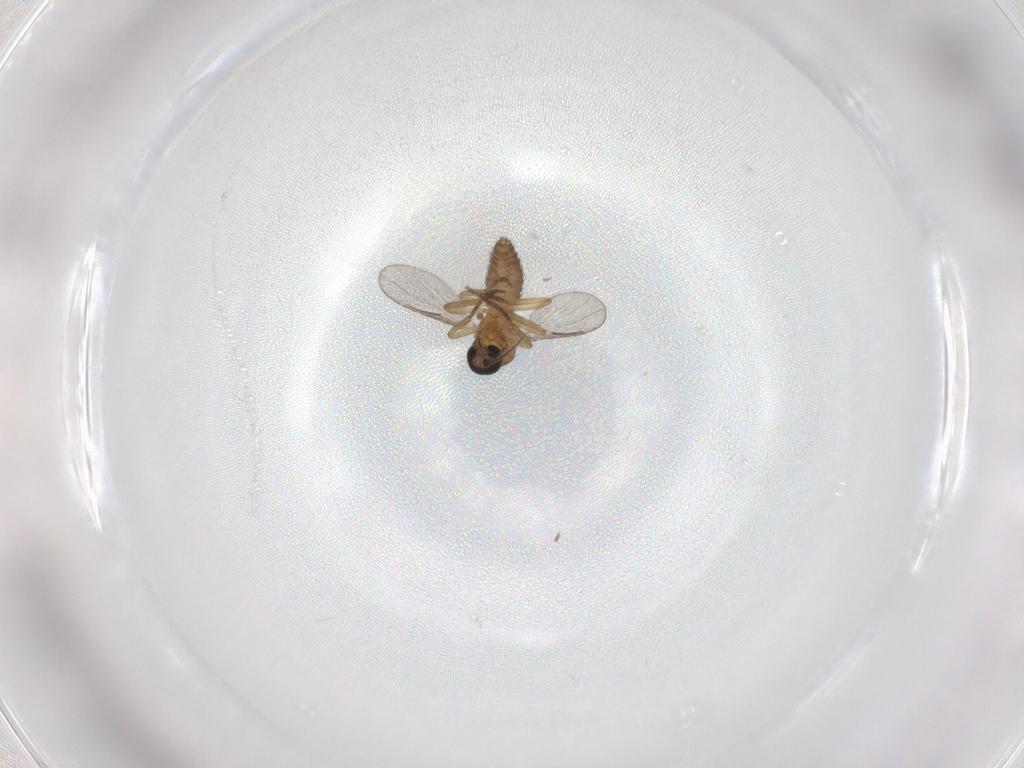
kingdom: Animalia
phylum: Arthropoda
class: Insecta
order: Diptera
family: Ceratopogonidae
